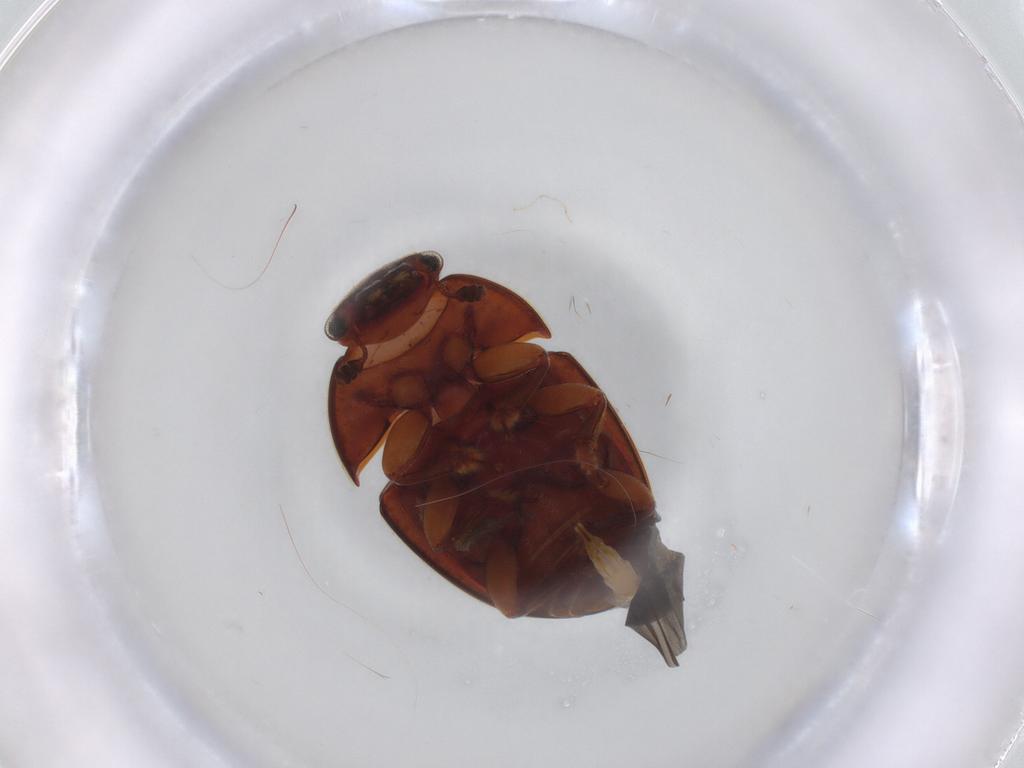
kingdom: Animalia
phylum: Arthropoda
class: Insecta
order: Coleoptera
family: Nitidulidae
